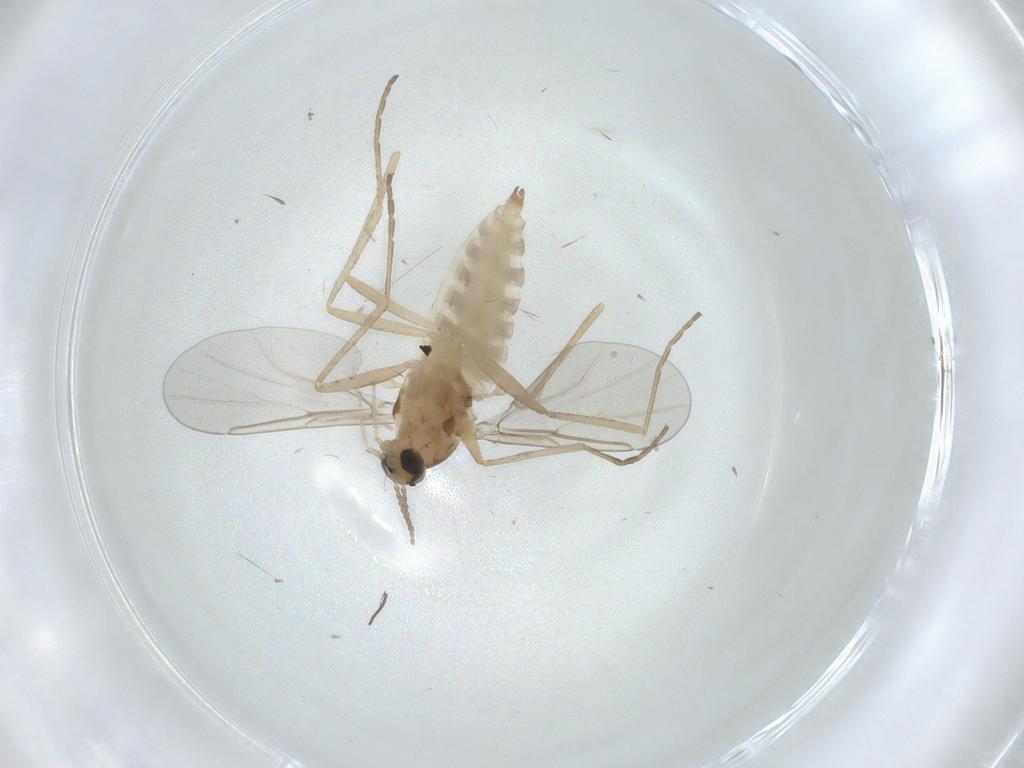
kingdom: Animalia
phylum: Arthropoda
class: Insecta
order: Diptera
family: Cecidomyiidae
